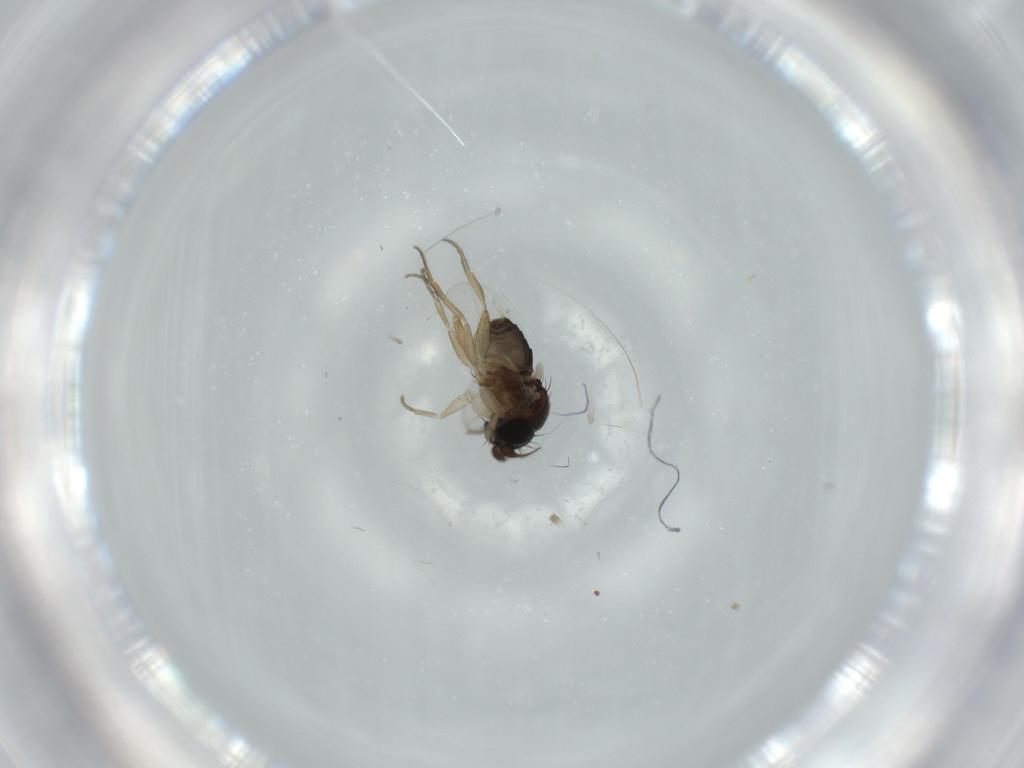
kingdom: Animalia
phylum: Arthropoda
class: Insecta
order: Diptera
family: Phoridae
